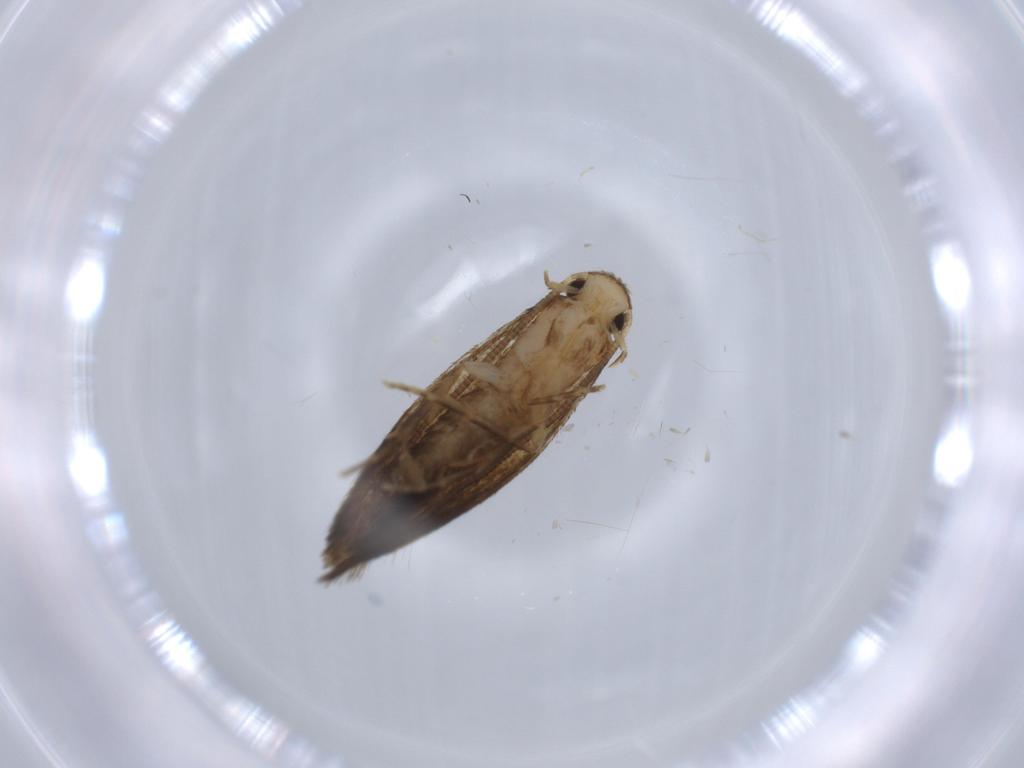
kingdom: Animalia
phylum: Arthropoda
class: Insecta
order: Lepidoptera
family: Tineidae
